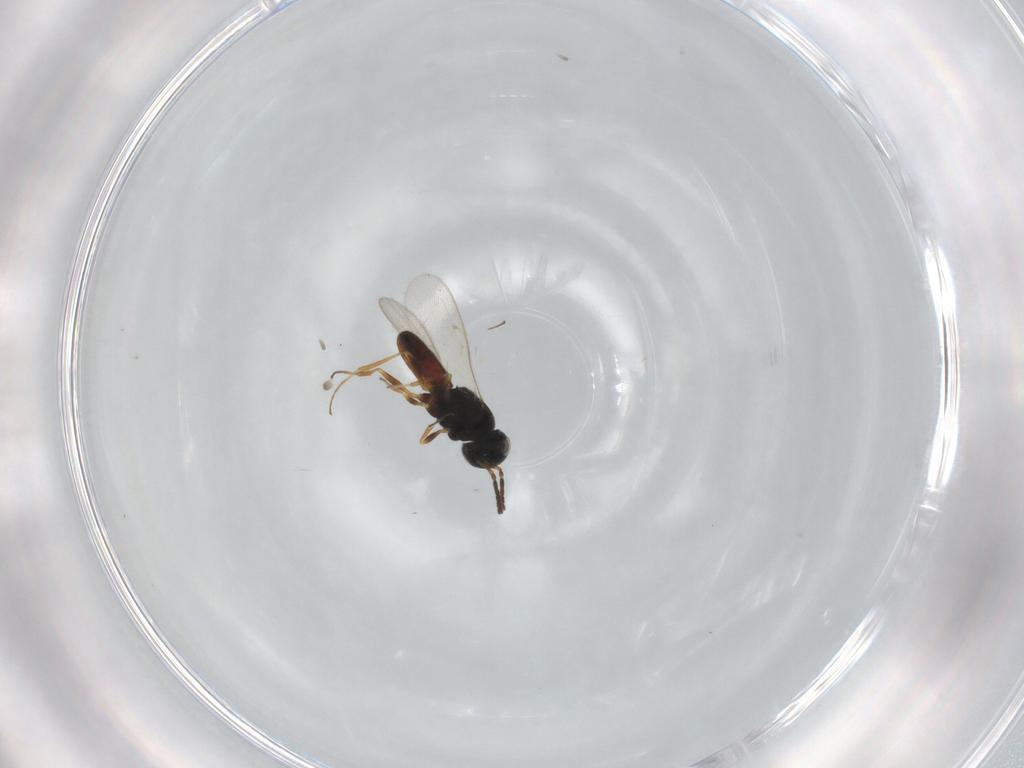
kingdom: Animalia
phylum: Arthropoda
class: Insecta
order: Hymenoptera
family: Scelionidae
